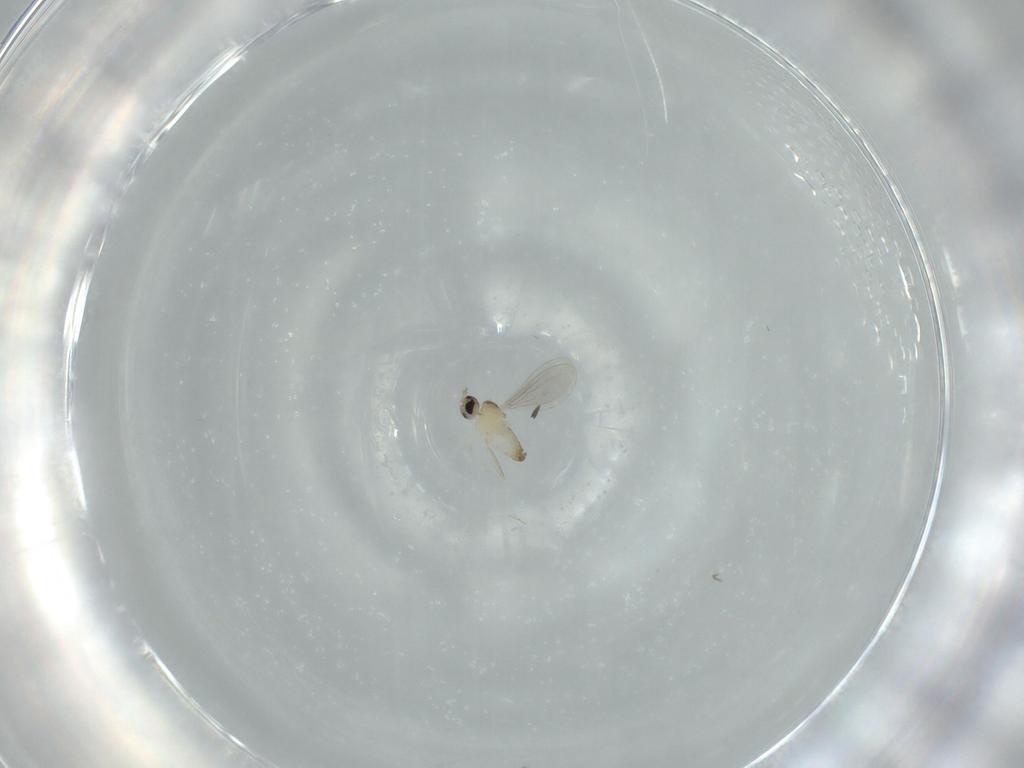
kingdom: Animalia
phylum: Arthropoda
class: Insecta
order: Diptera
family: Cecidomyiidae
